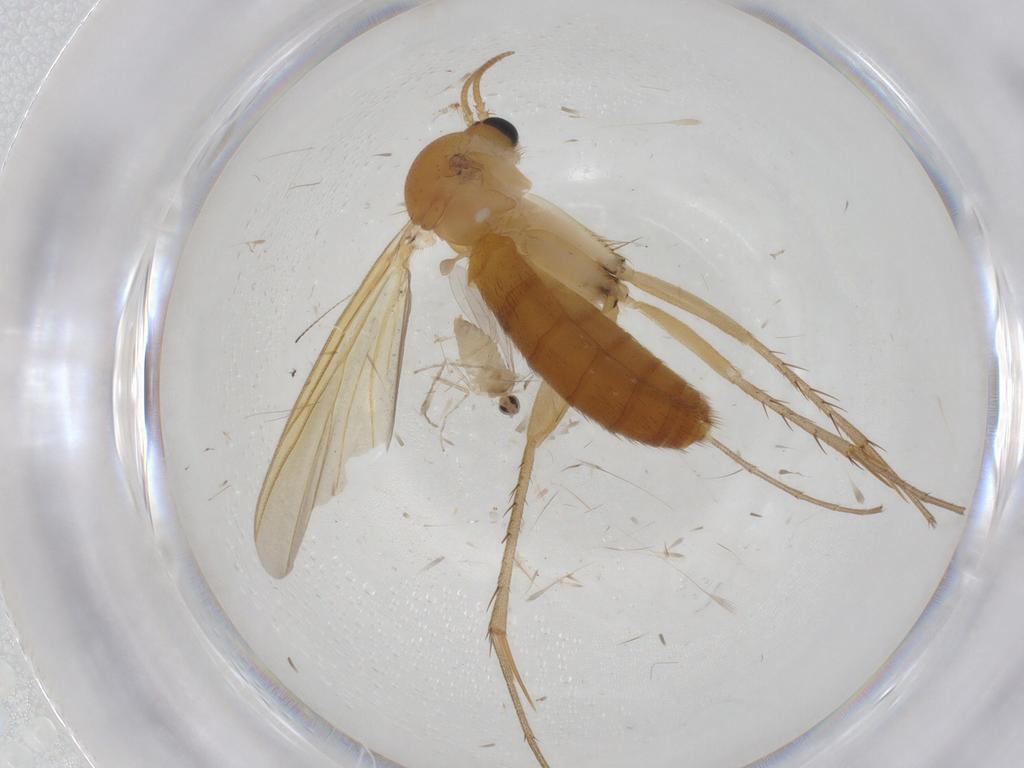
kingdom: Animalia
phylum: Arthropoda
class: Insecta
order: Diptera
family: Mycetophilidae
